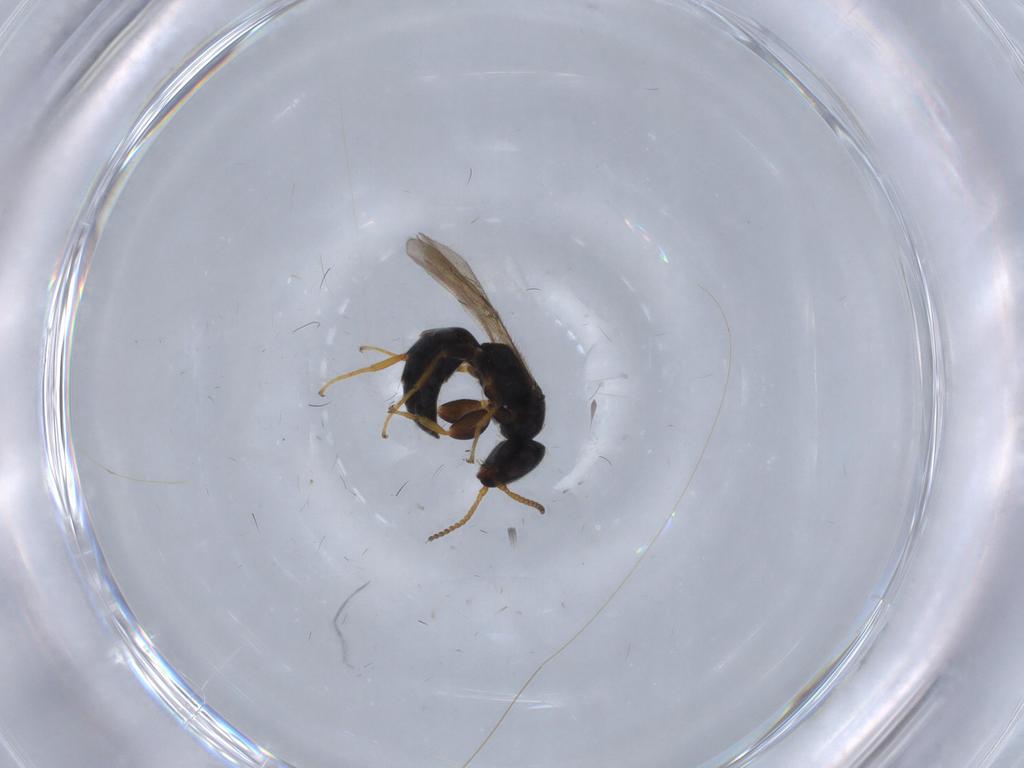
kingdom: Animalia
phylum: Arthropoda
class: Insecta
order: Hymenoptera
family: Bethylidae
